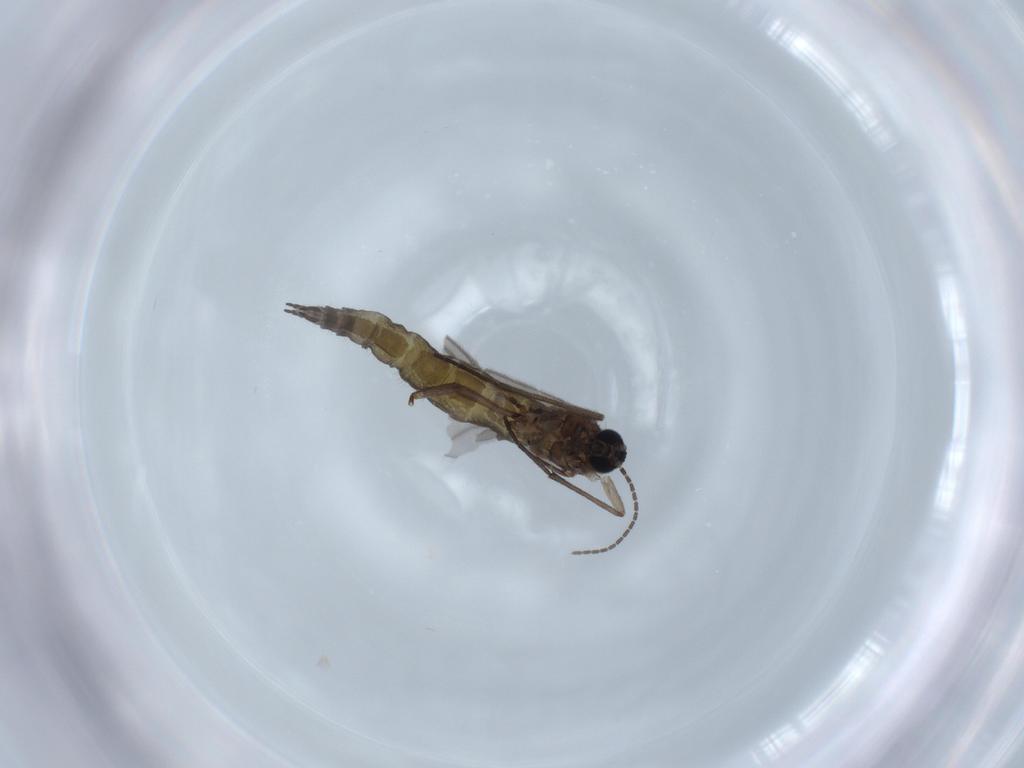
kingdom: Animalia
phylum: Arthropoda
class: Insecta
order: Diptera
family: Sciaridae
